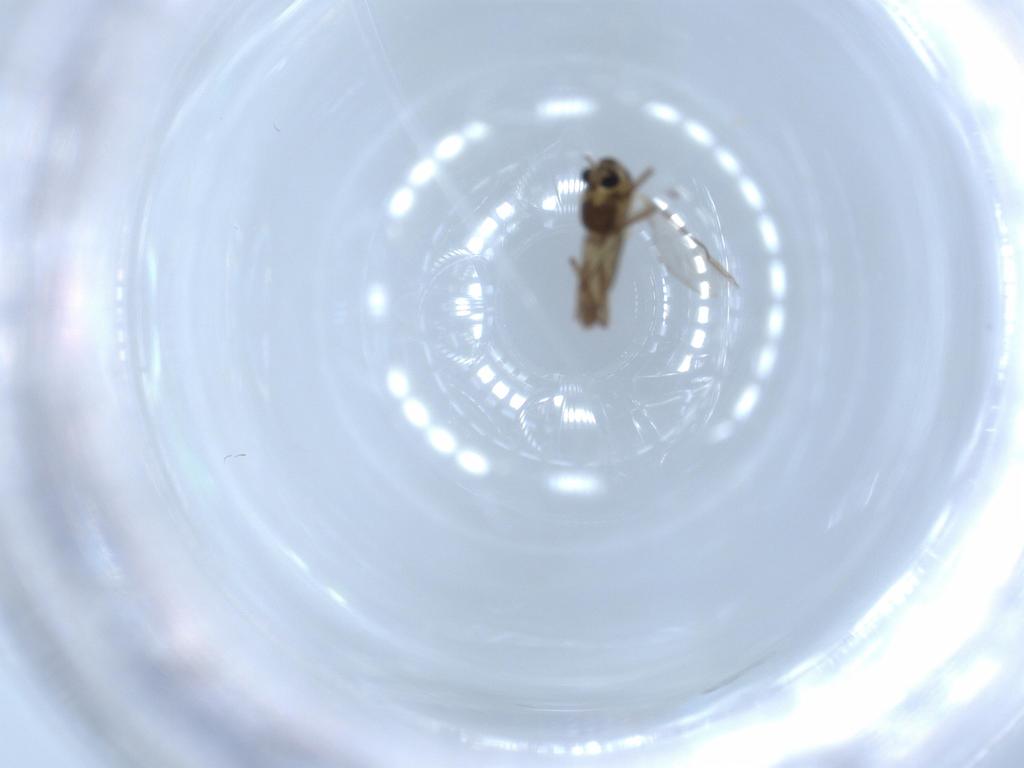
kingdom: Animalia
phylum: Arthropoda
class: Insecta
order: Diptera
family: Chironomidae
